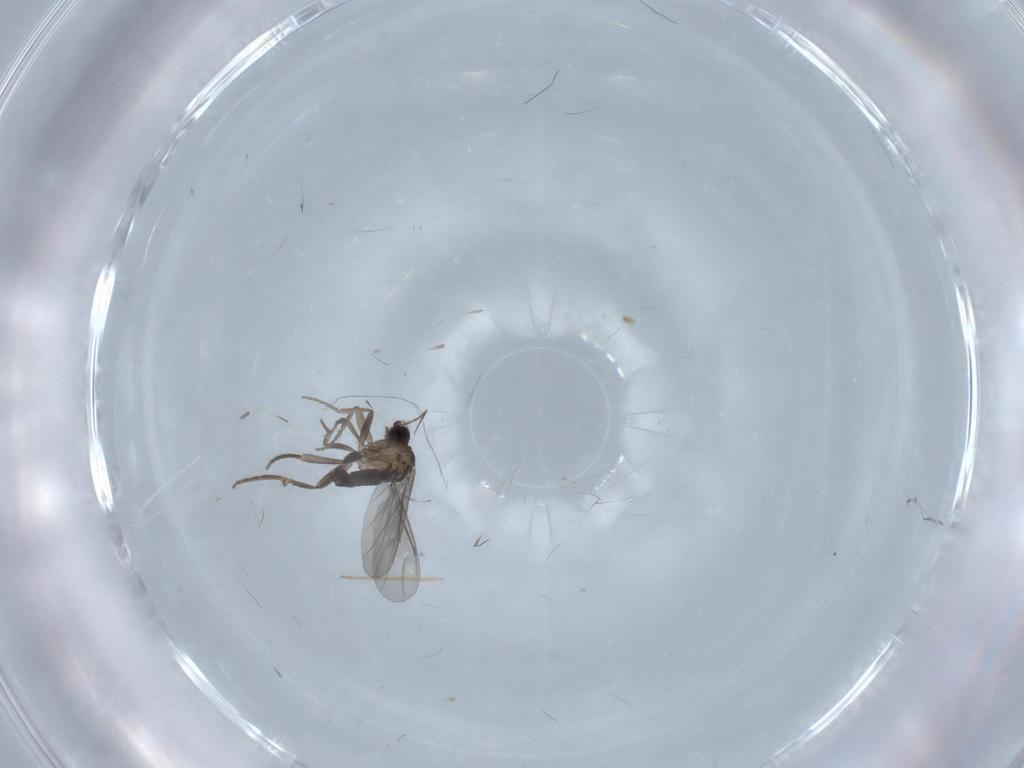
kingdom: Animalia
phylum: Arthropoda
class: Insecta
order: Diptera
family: Phoridae
